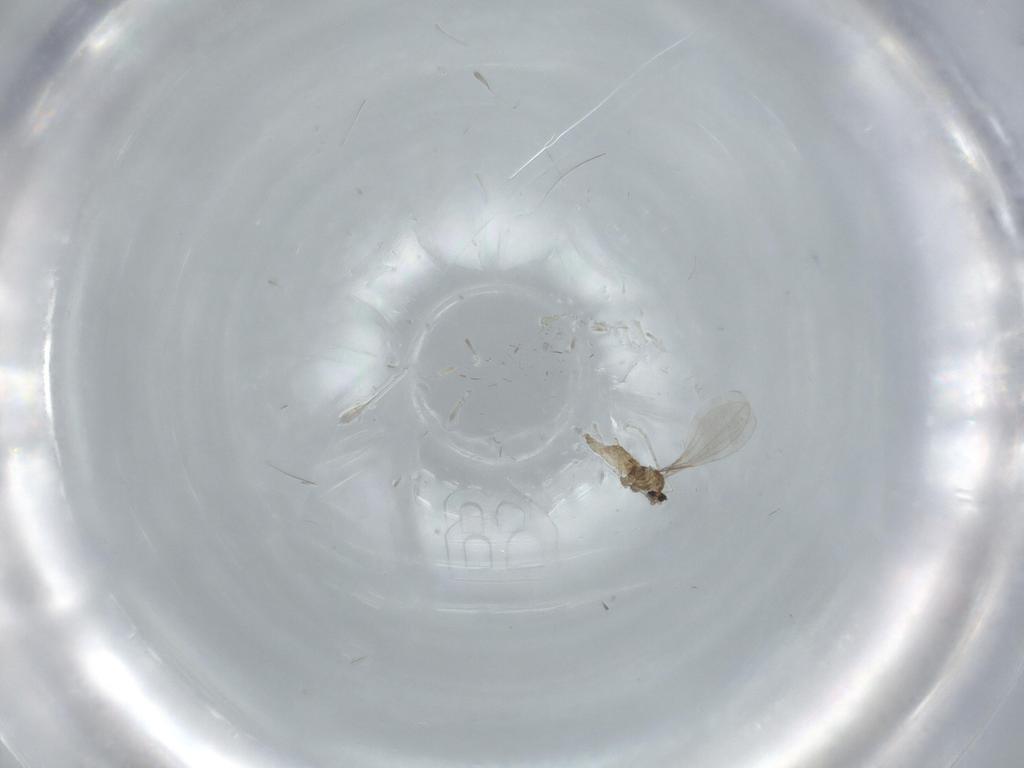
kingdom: Animalia
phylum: Arthropoda
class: Insecta
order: Diptera
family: Cecidomyiidae
